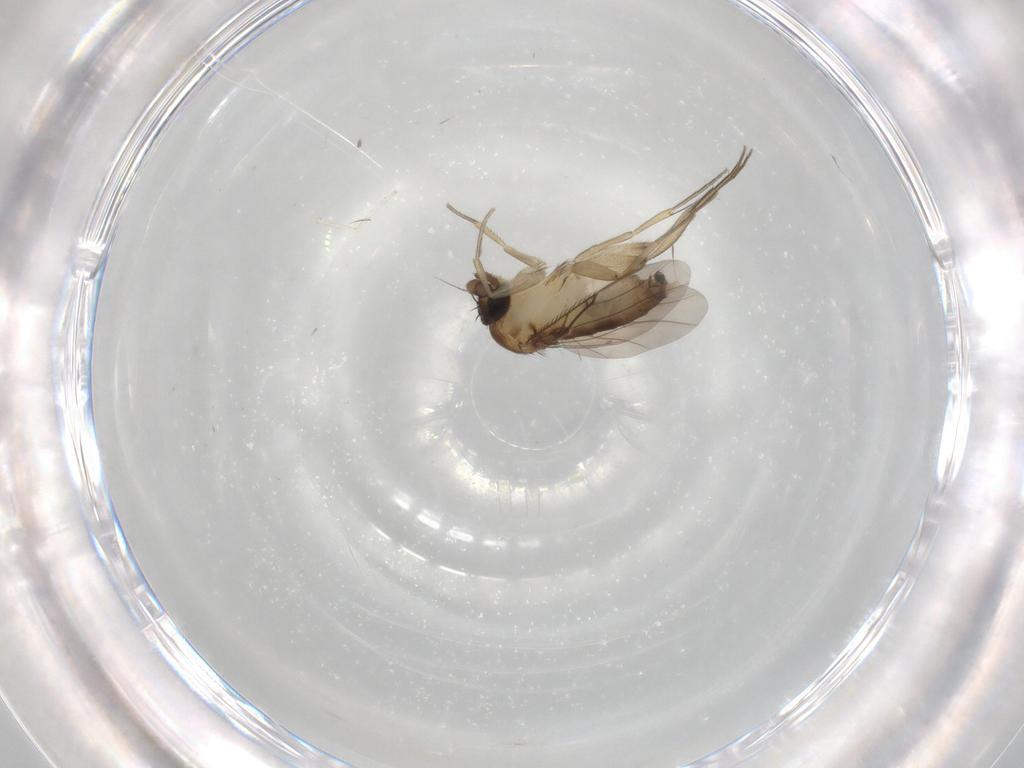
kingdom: Animalia
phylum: Arthropoda
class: Insecta
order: Diptera
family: Phoridae
